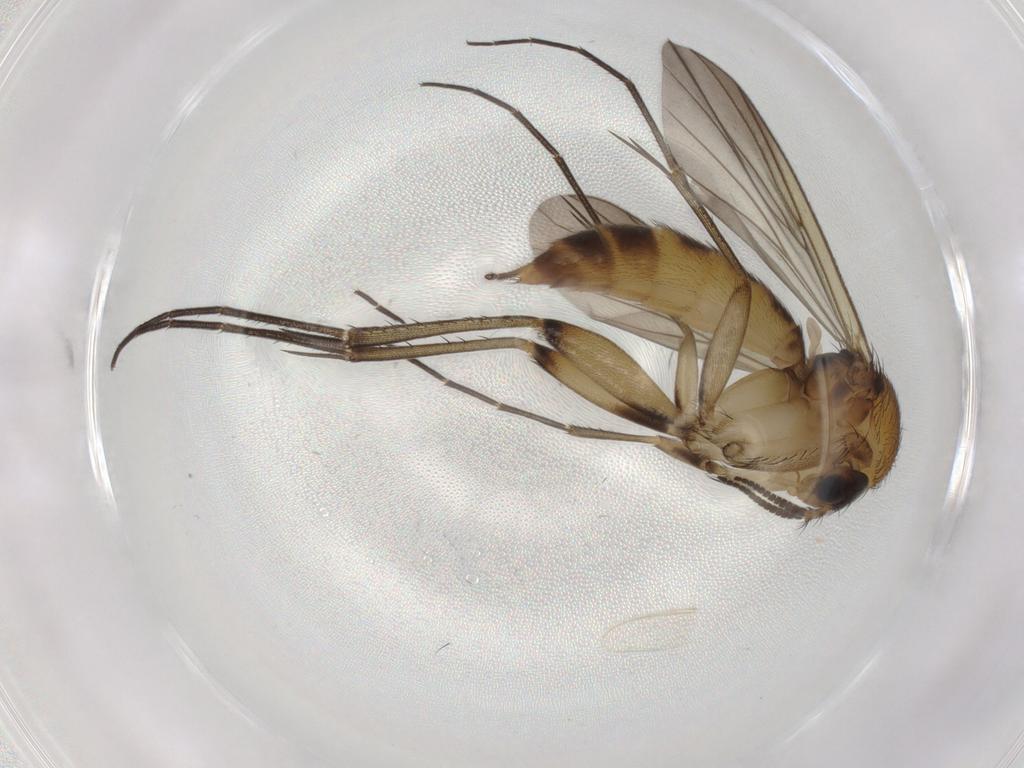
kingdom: Animalia
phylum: Arthropoda
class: Insecta
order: Diptera
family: Mycetophilidae
